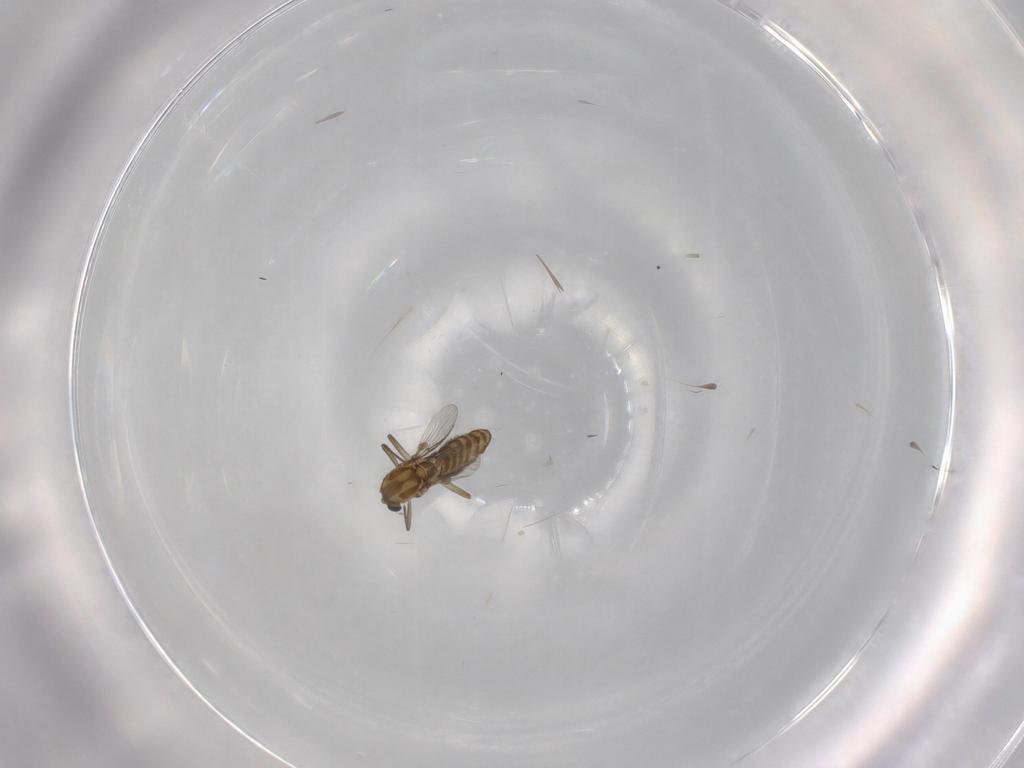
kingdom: Animalia
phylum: Arthropoda
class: Insecta
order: Diptera
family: Chironomidae
